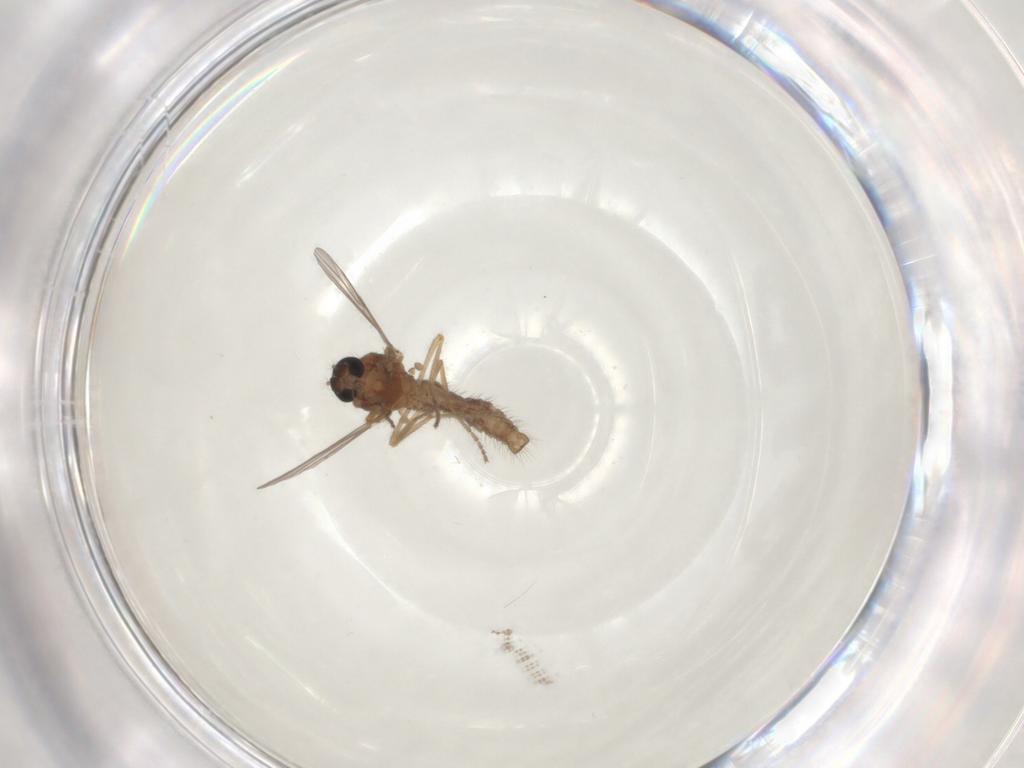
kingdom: Animalia
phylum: Arthropoda
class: Insecta
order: Diptera
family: Ceratopogonidae
